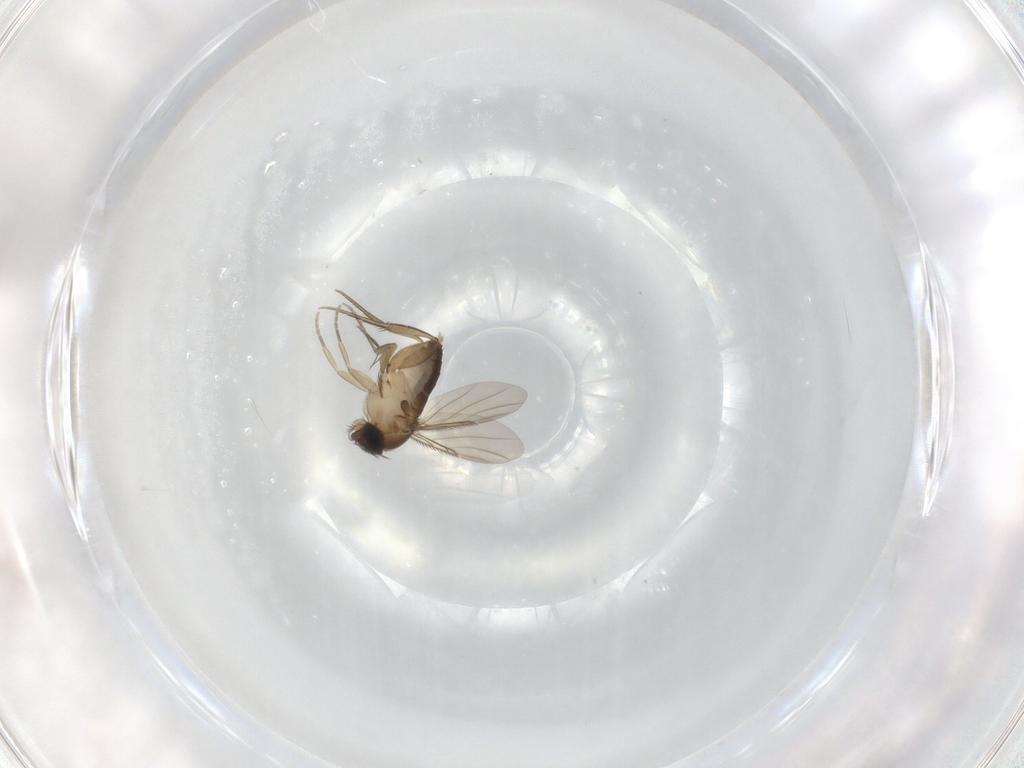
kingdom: Animalia
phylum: Arthropoda
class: Insecta
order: Diptera
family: Phoridae
